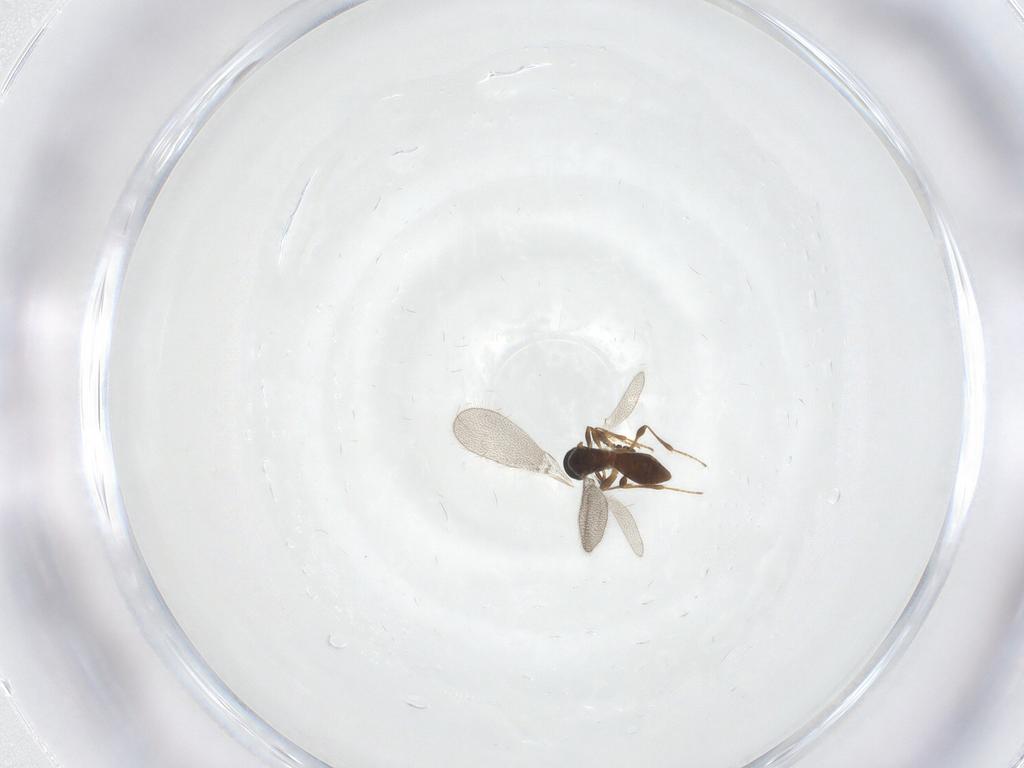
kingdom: Animalia
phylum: Arthropoda
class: Insecta
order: Hymenoptera
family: Platygastridae
